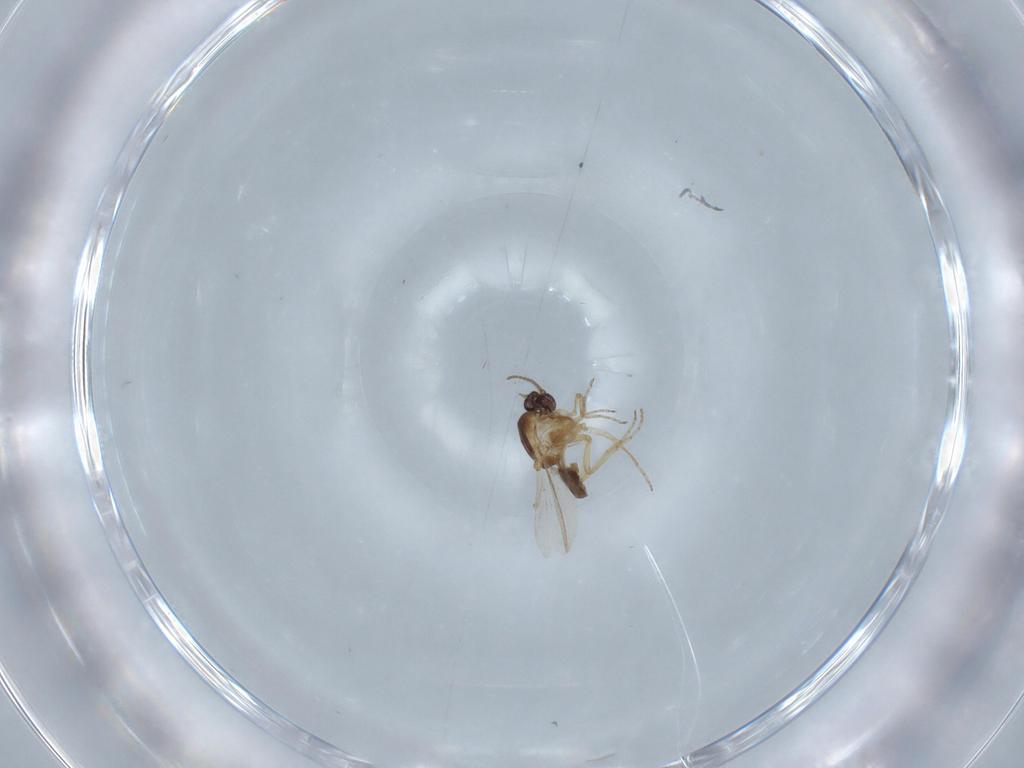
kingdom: Animalia
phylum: Arthropoda
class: Insecta
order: Diptera
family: Ceratopogonidae
